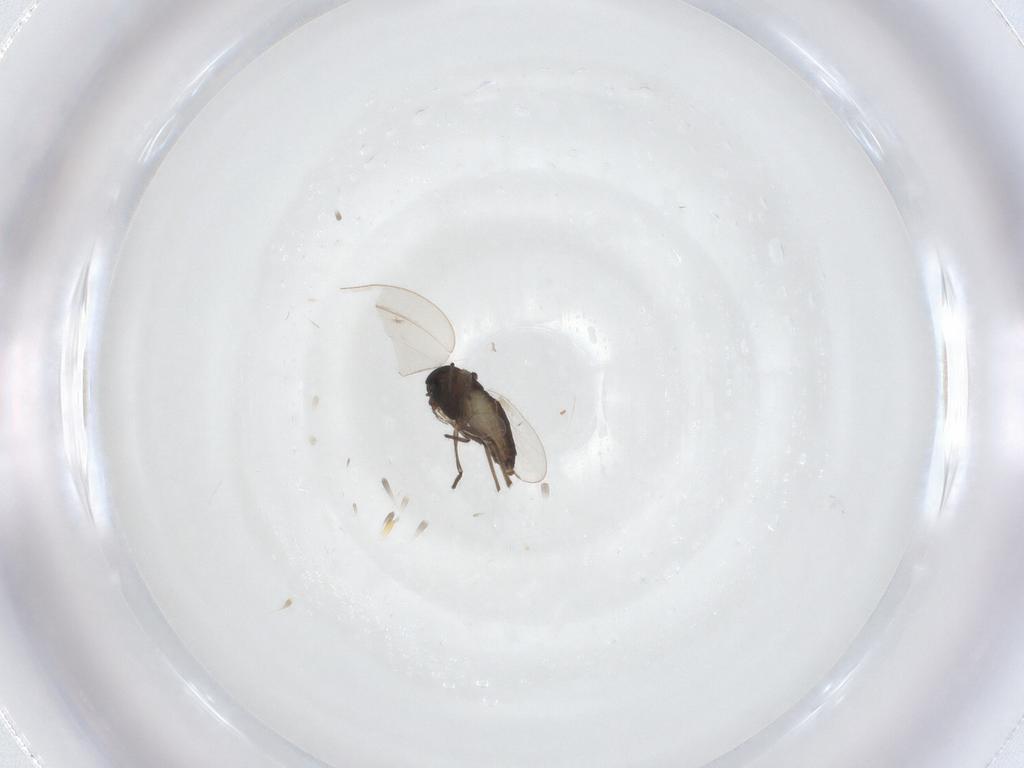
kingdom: Animalia
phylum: Arthropoda
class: Insecta
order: Diptera
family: Chironomidae
